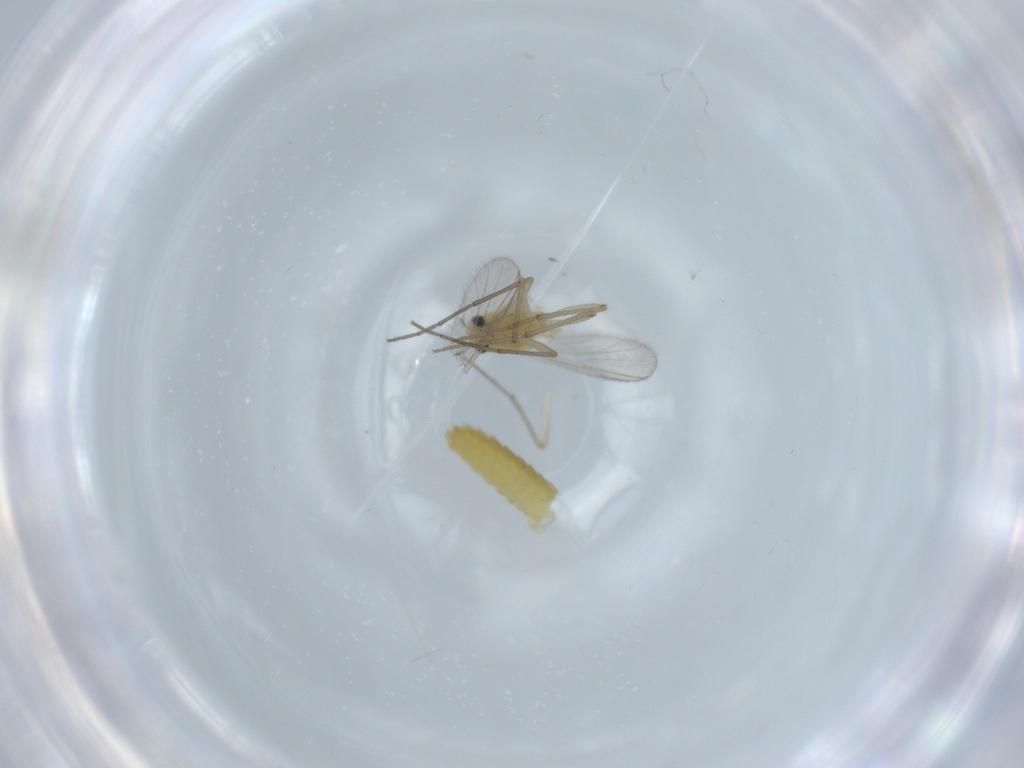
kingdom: Animalia
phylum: Arthropoda
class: Insecta
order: Diptera
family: Chironomidae
